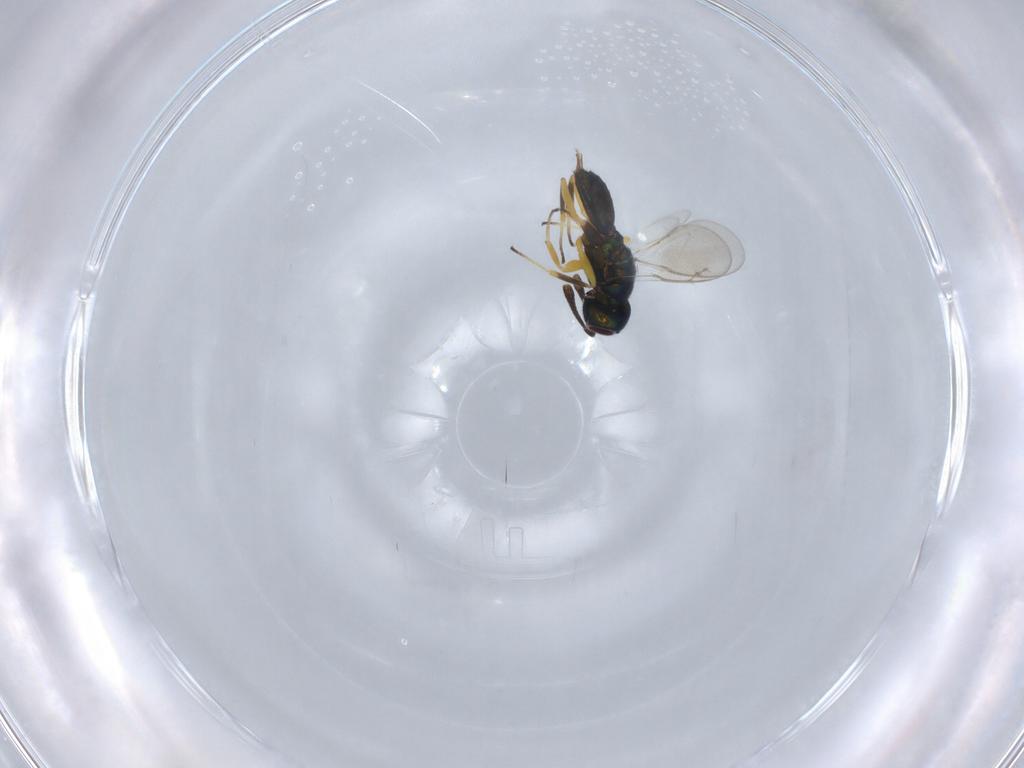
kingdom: Animalia
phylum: Arthropoda
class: Insecta
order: Hymenoptera
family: Eupelmidae
